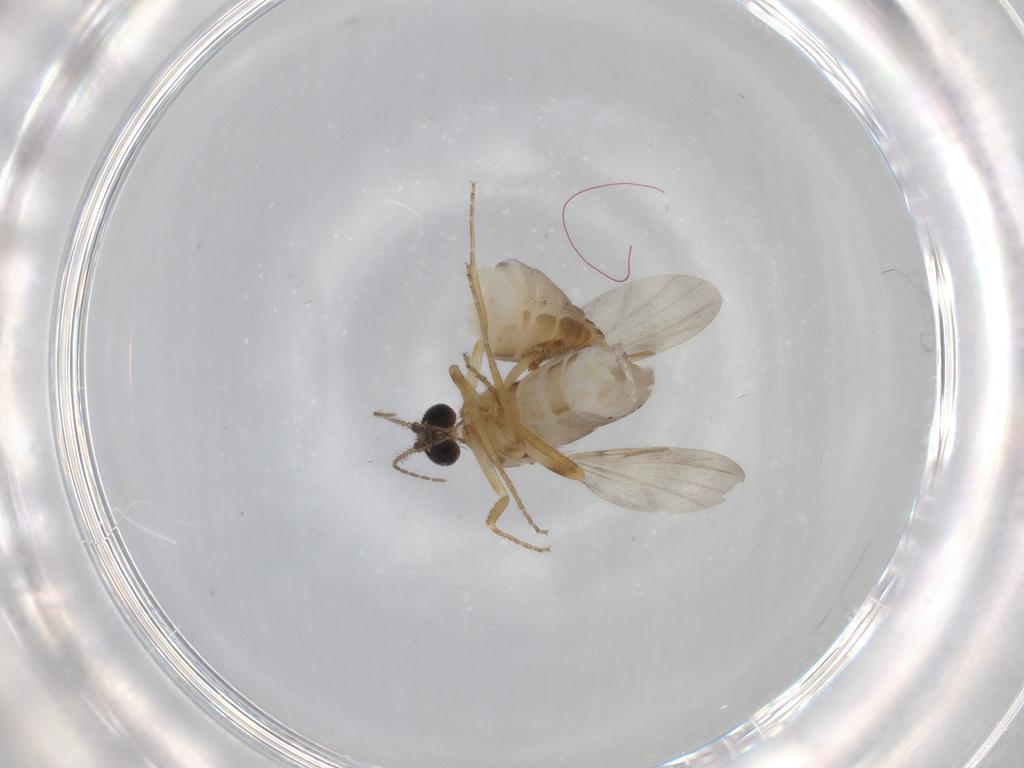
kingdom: Animalia
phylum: Arthropoda
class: Insecta
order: Diptera
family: Ceratopogonidae
